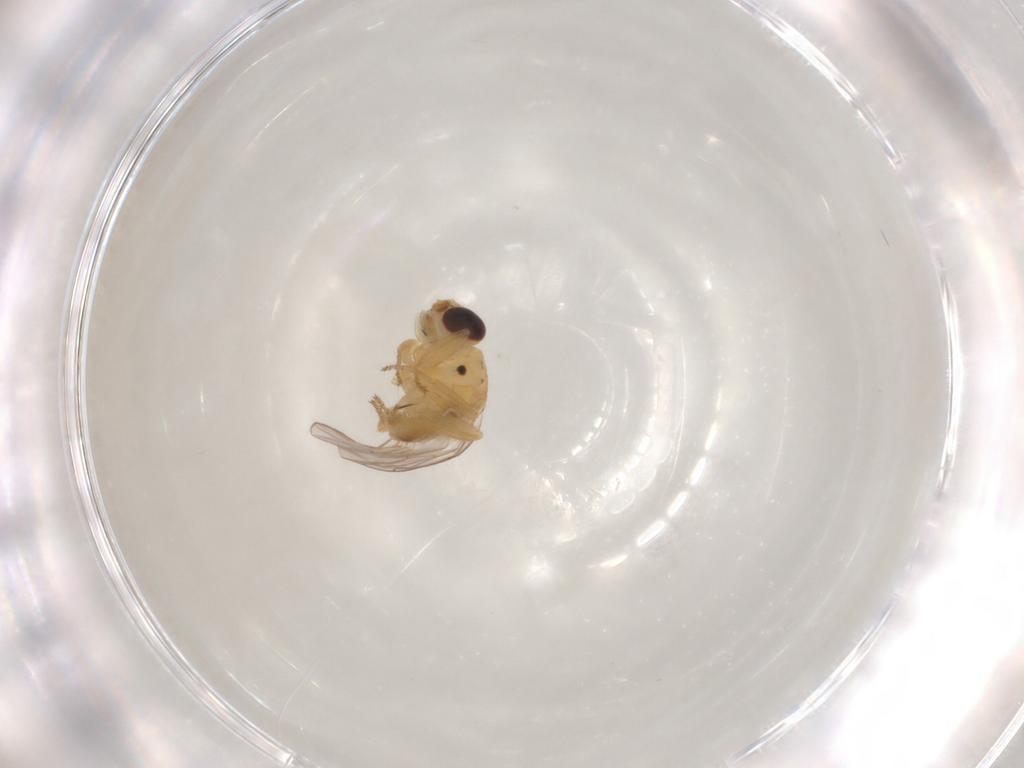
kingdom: Animalia
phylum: Arthropoda
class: Insecta
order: Diptera
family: Chloropidae
